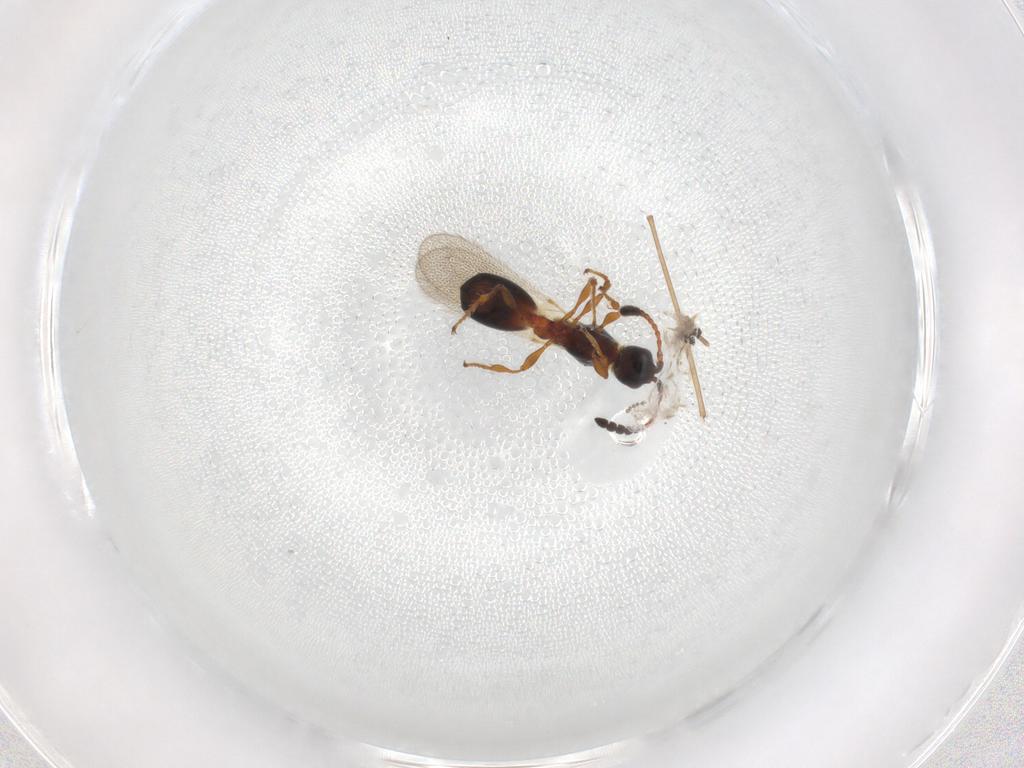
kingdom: Animalia
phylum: Arthropoda
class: Insecta
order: Hymenoptera
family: Diapriidae
